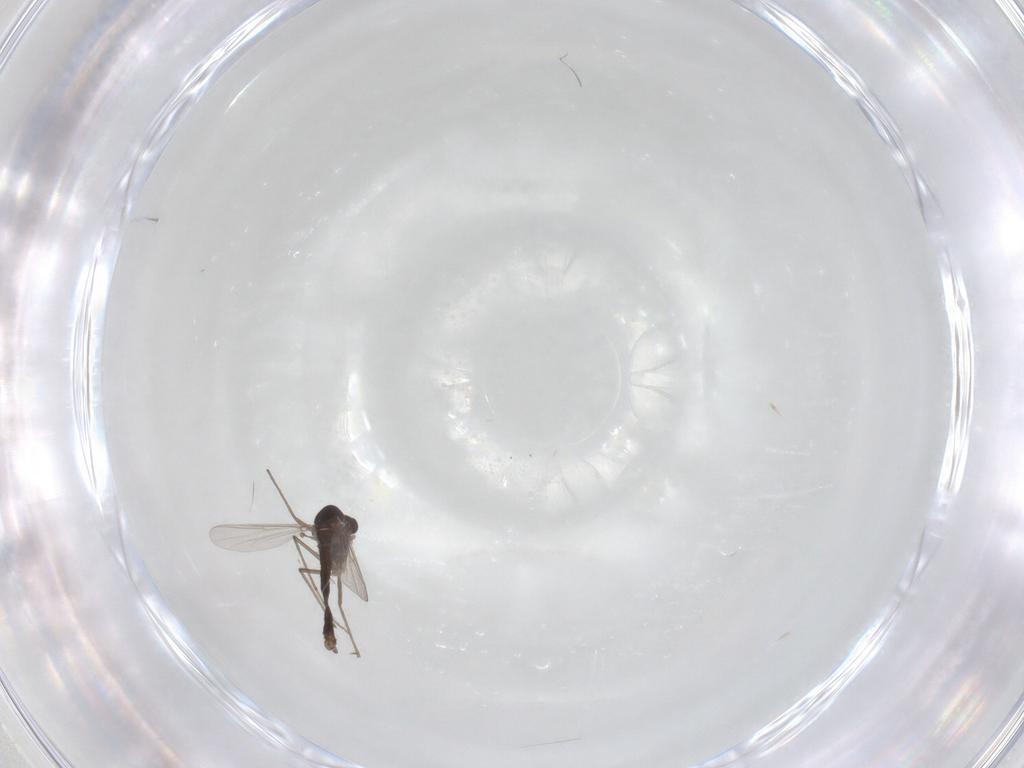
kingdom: Animalia
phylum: Arthropoda
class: Insecta
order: Diptera
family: Chironomidae
